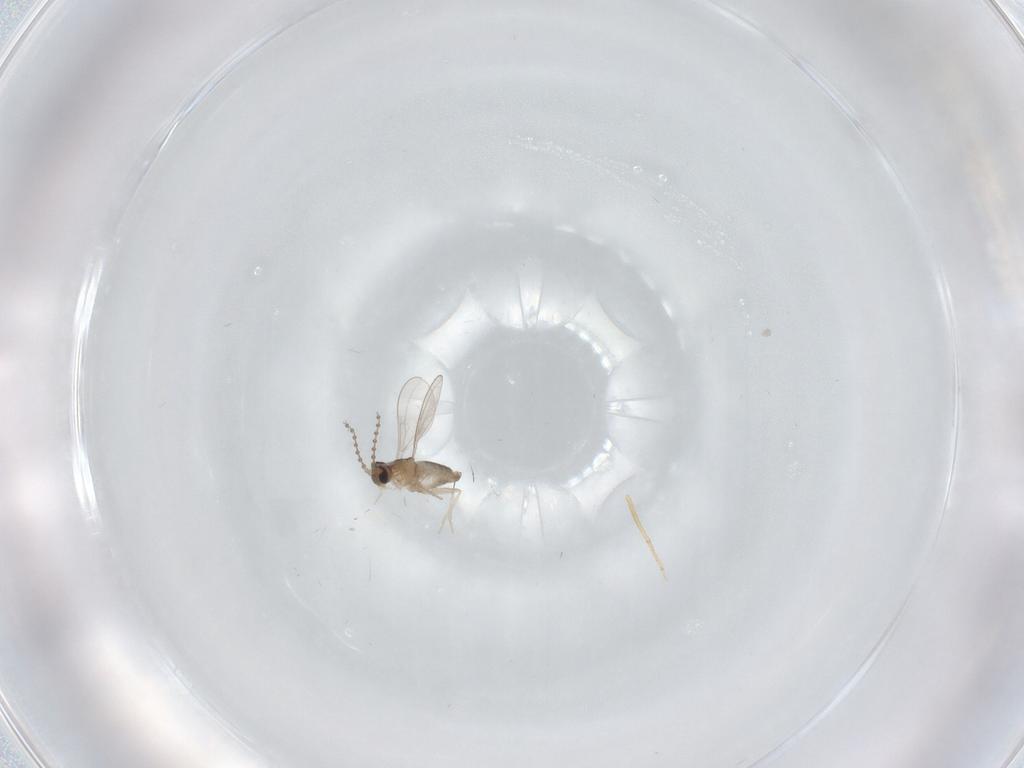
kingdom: Animalia
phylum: Arthropoda
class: Insecta
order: Diptera
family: Cecidomyiidae
